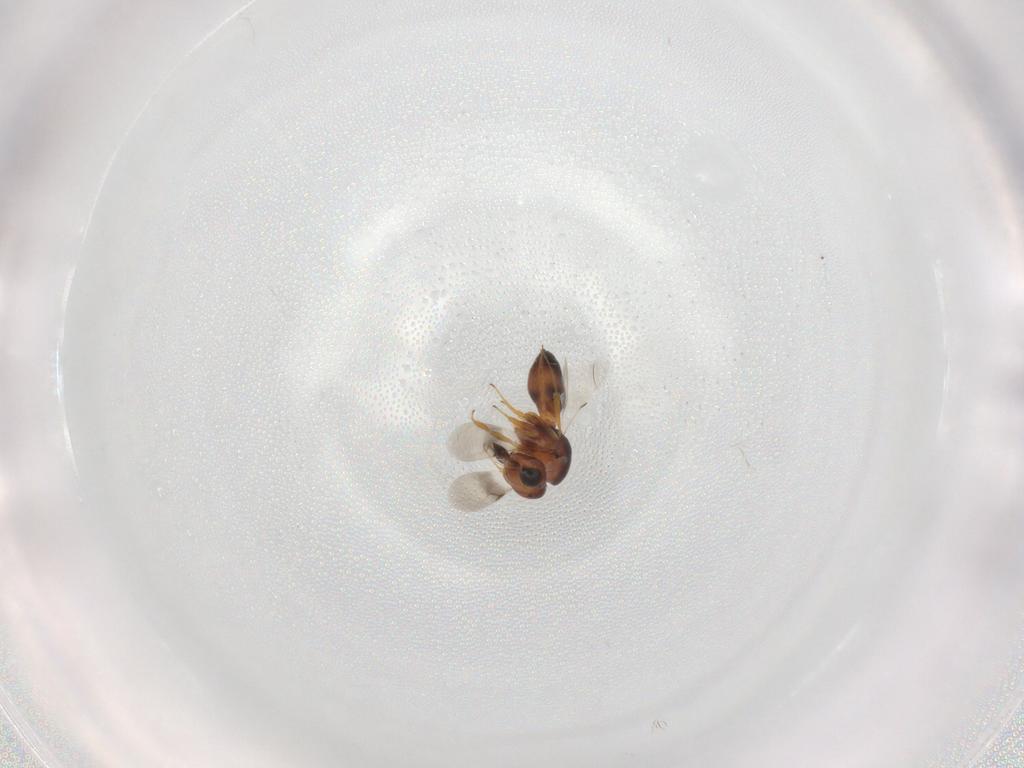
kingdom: Animalia
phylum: Arthropoda
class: Insecta
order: Hymenoptera
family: Scelionidae
